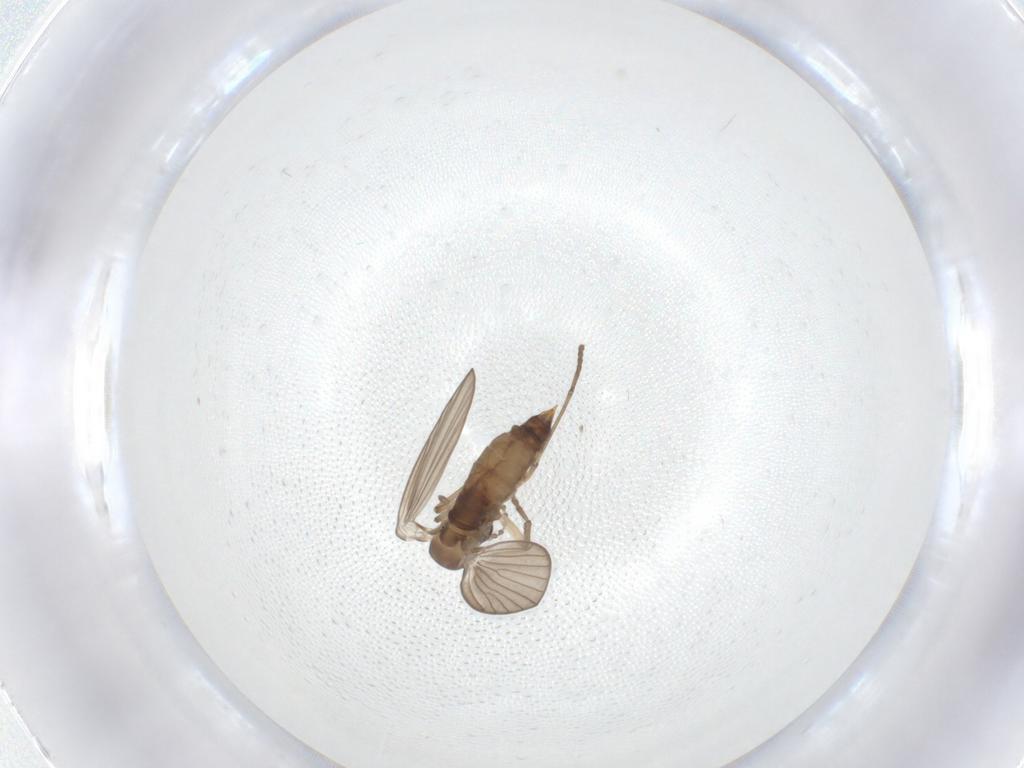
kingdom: Animalia
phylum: Arthropoda
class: Insecta
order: Diptera
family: Psychodidae
